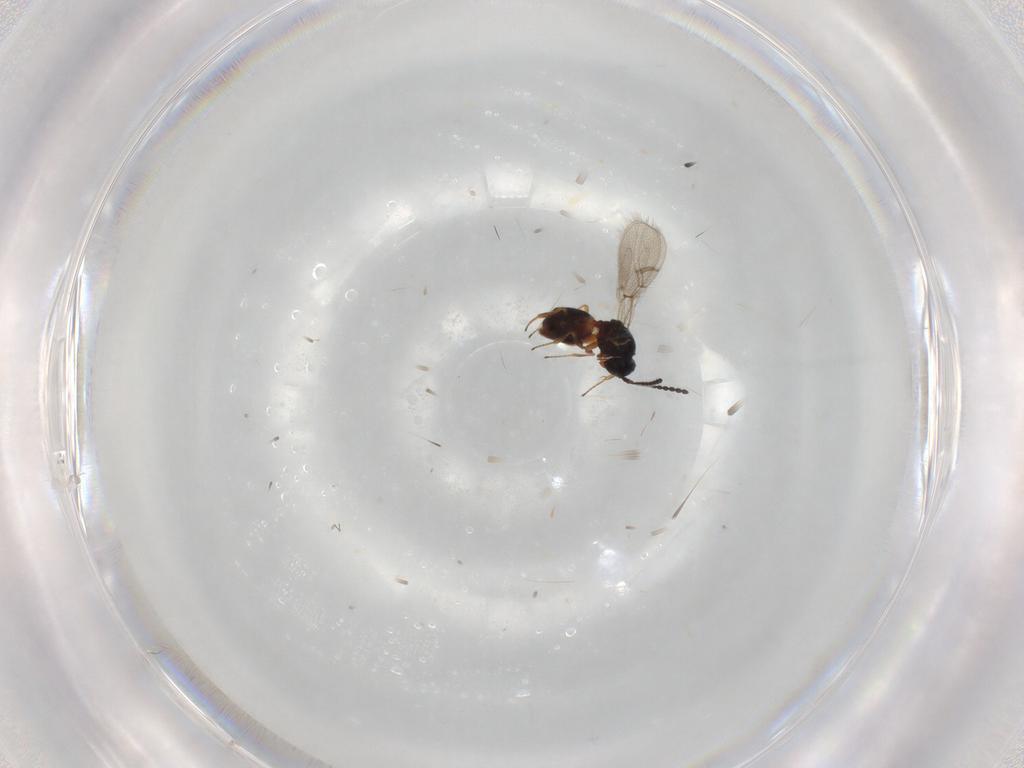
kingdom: Animalia
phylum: Arthropoda
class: Insecta
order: Hymenoptera
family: Figitidae
